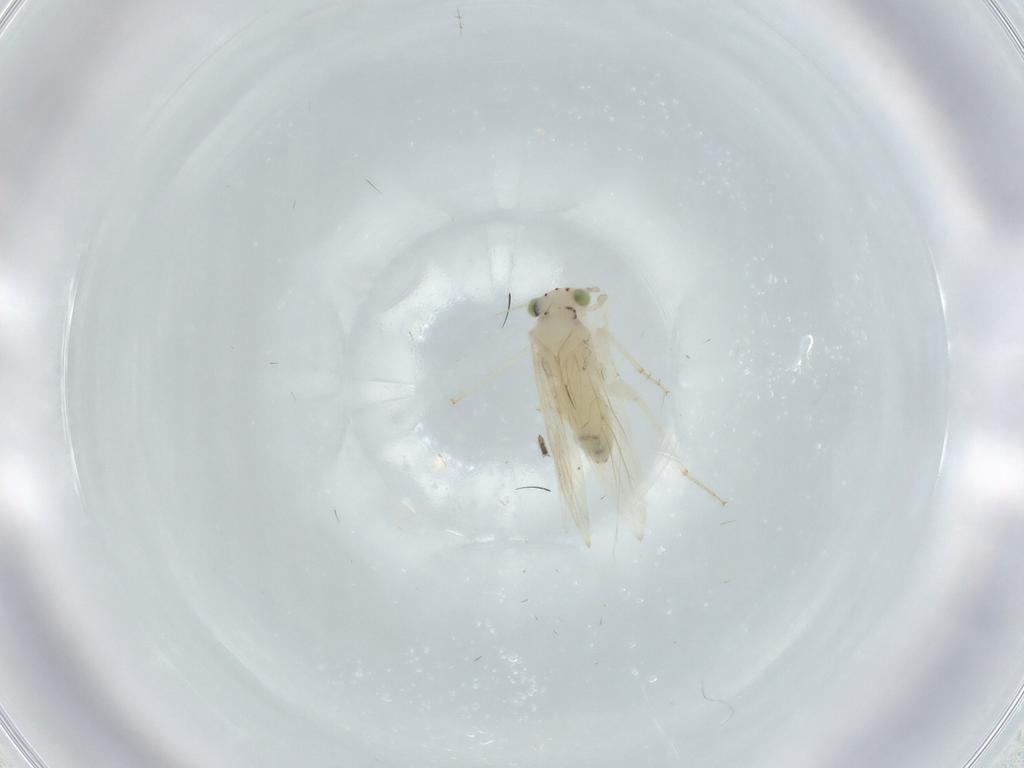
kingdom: Animalia
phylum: Arthropoda
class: Insecta
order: Psocodea
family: Lepidopsocidae
